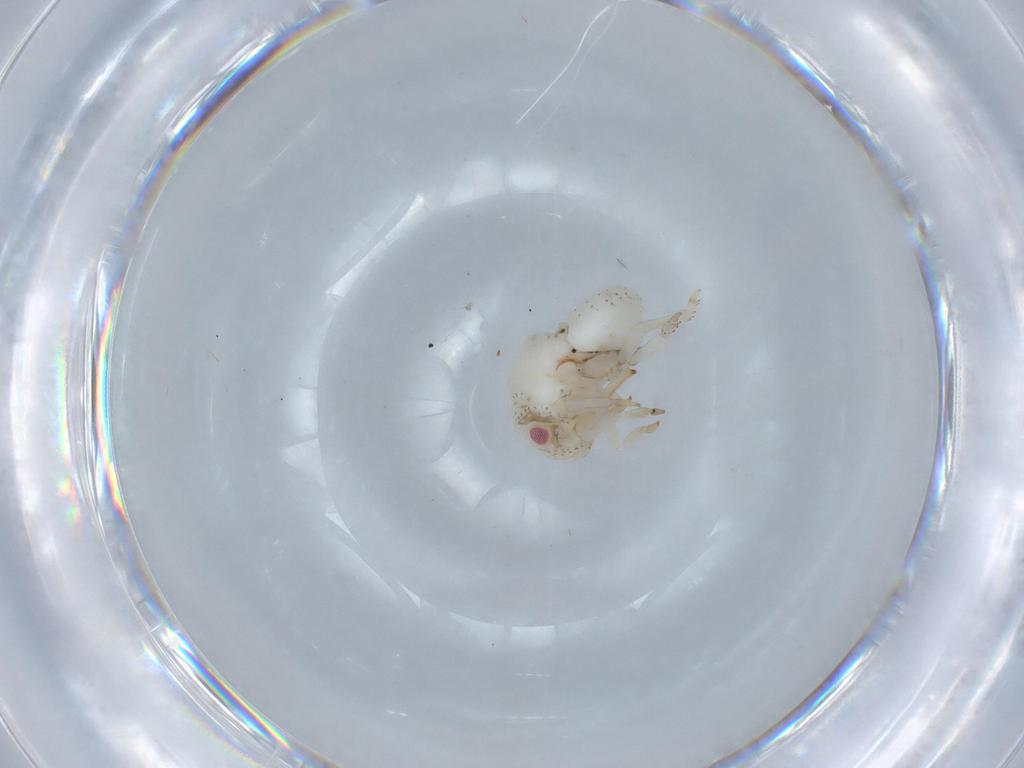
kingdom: Animalia
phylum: Arthropoda
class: Insecta
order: Hemiptera
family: Acanaloniidae
